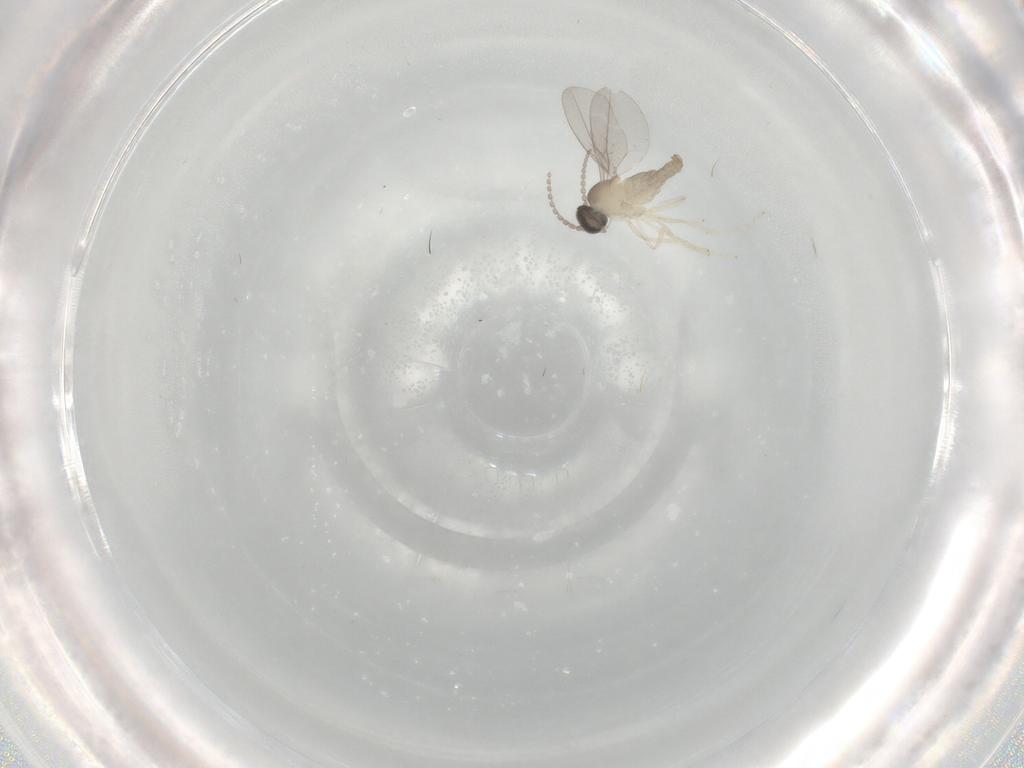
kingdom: Animalia
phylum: Arthropoda
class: Insecta
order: Diptera
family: Cecidomyiidae
